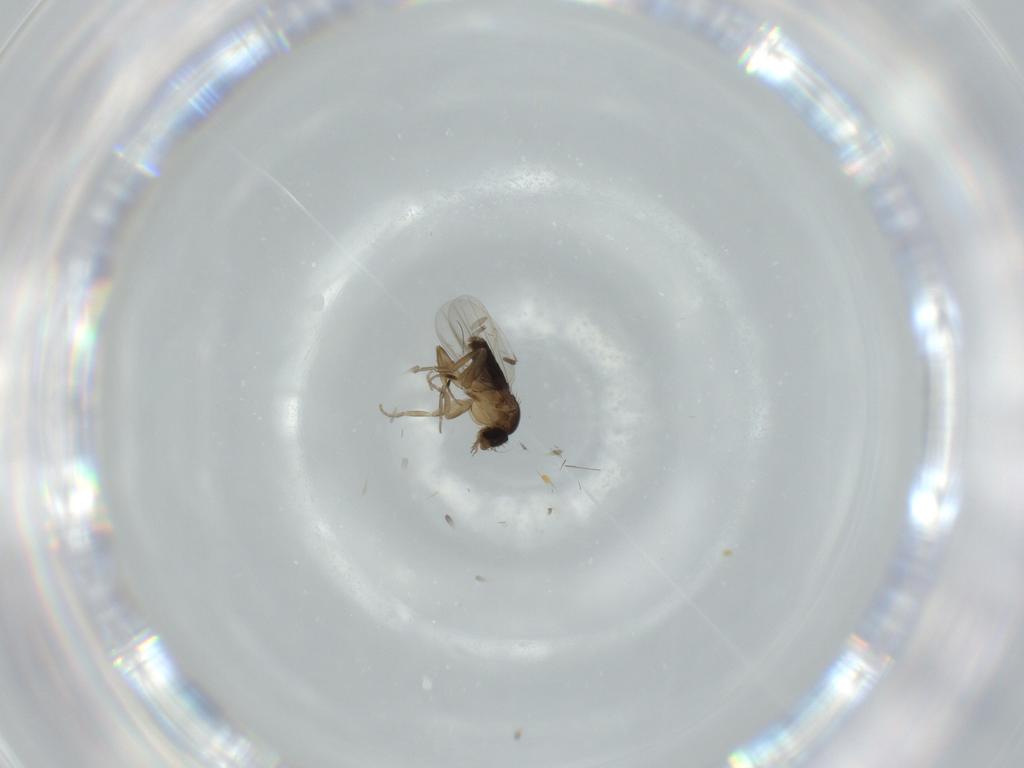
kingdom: Animalia
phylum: Arthropoda
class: Insecta
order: Diptera
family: Phoridae
